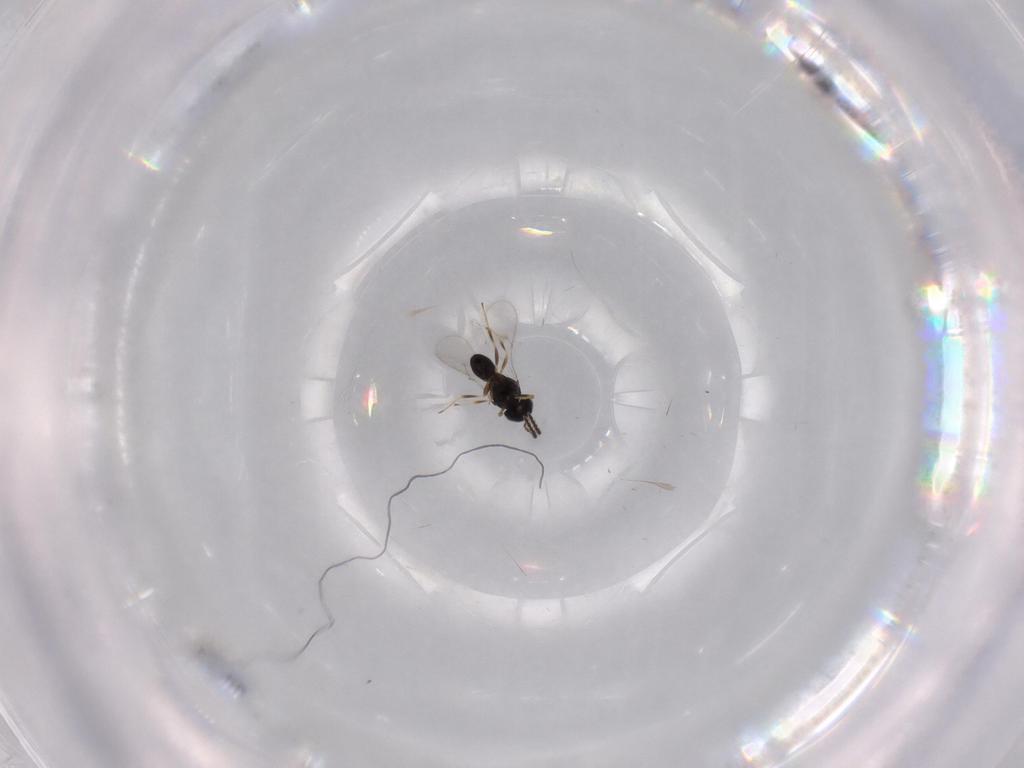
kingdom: Animalia
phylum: Arthropoda
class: Insecta
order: Hymenoptera
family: Scelionidae
